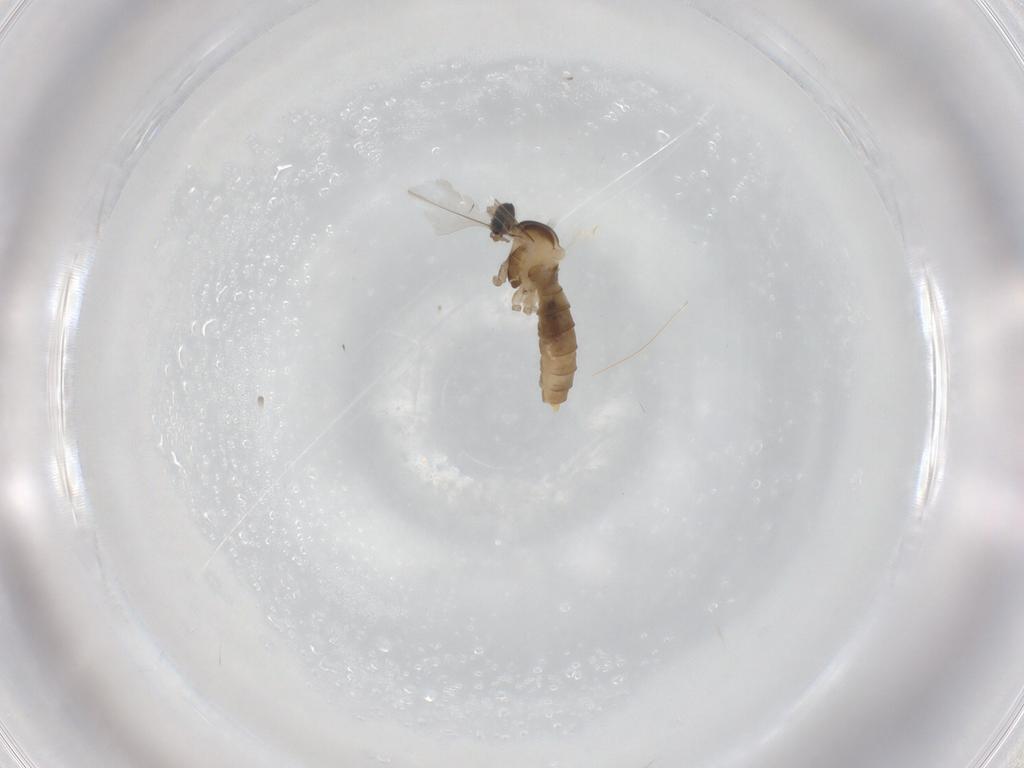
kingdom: Animalia
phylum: Arthropoda
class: Insecta
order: Diptera
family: Cecidomyiidae
